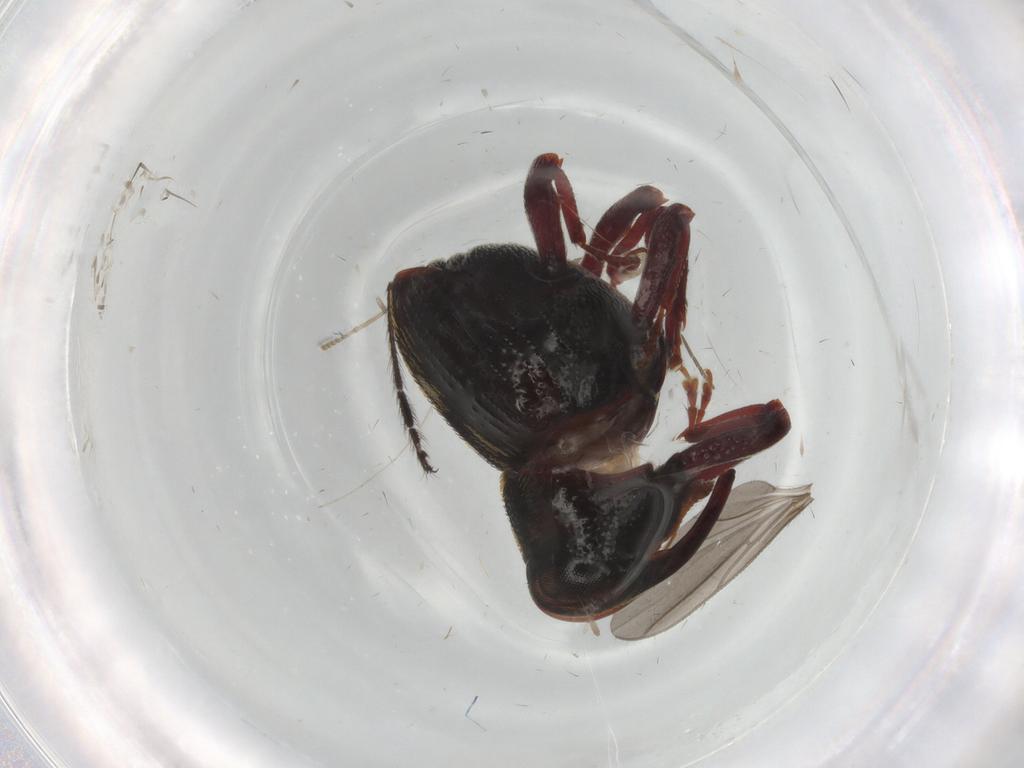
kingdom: Animalia
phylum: Arthropoda
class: Insecta
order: Coleoptera
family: Curculionidae
